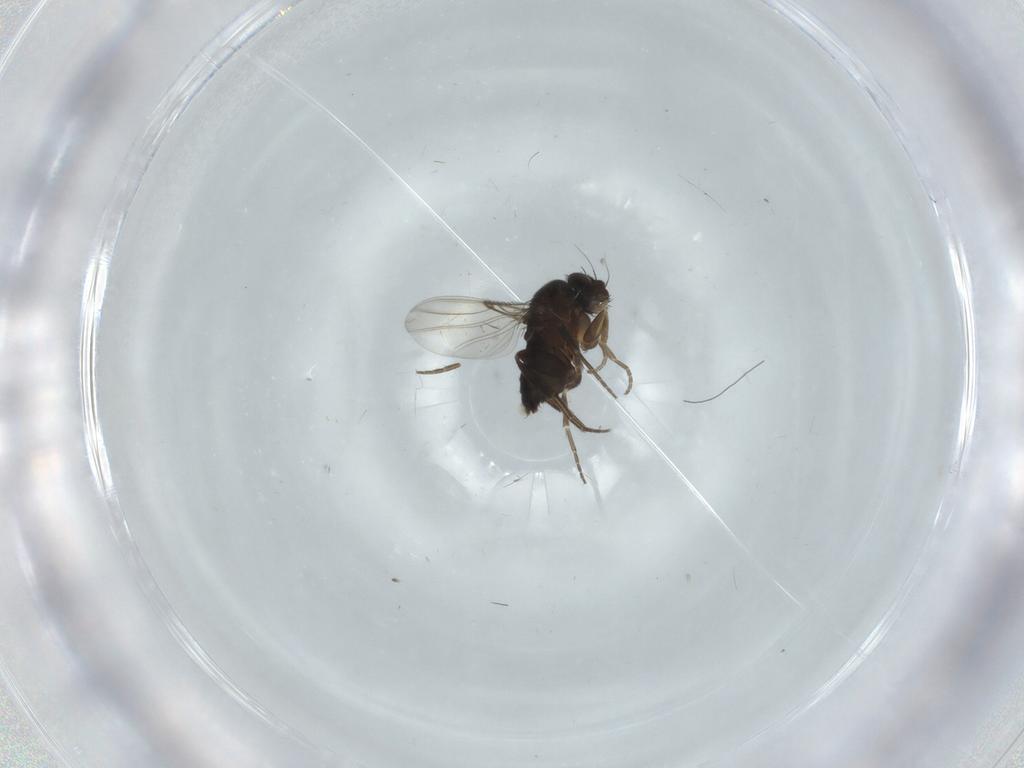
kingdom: Animalia
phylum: Arthropoda
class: Insecta
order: Diptera
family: Phoridae
